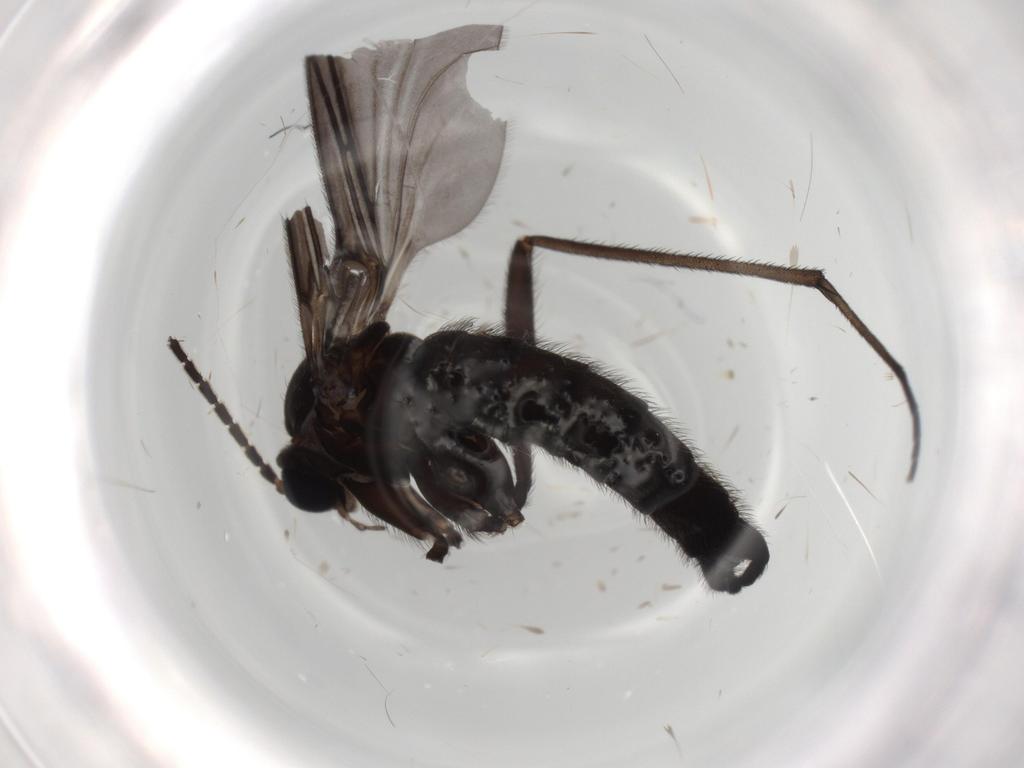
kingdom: Animalia
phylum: Arthropoda
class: Insecta
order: Diptera
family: Sciaridae
